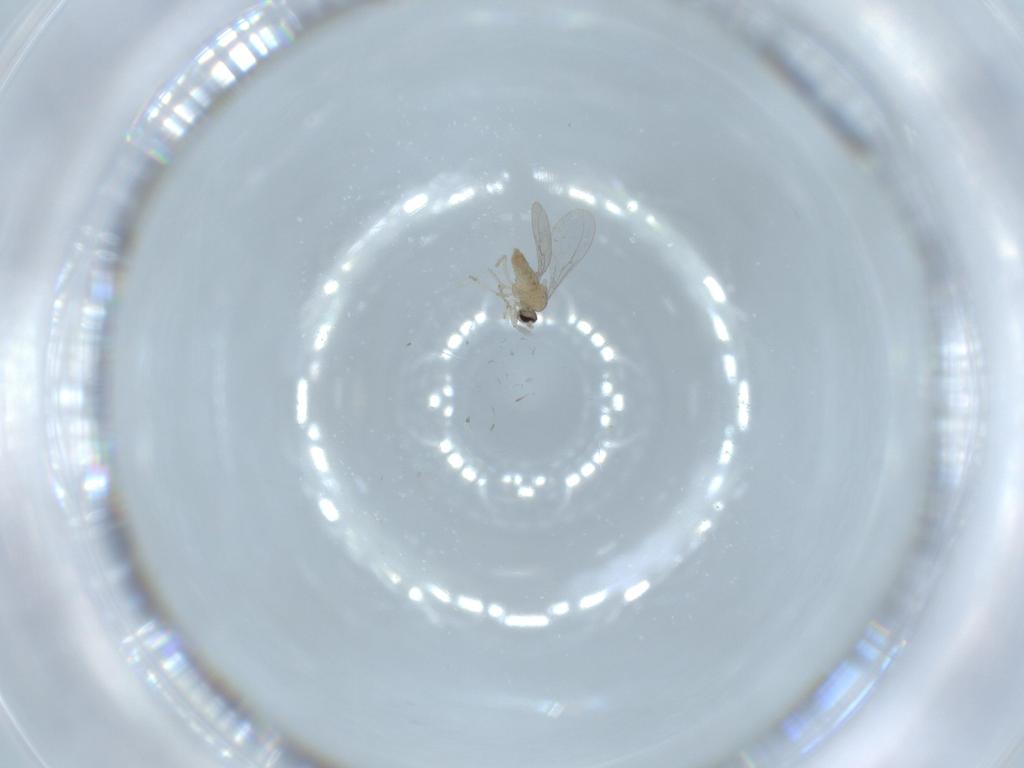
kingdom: Animalia
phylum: Arthropoda
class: Insecta
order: Diptera
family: Cecidomyiidae
